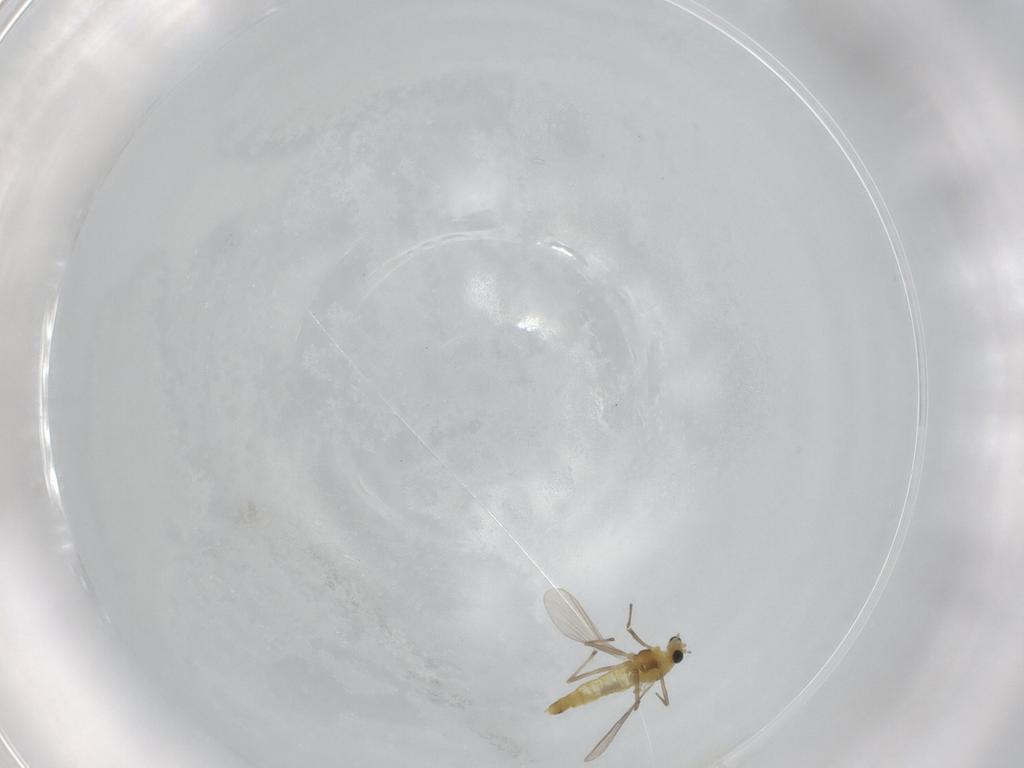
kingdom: Animalia
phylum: Arthropoda
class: Insecta
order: Diptera
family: Chironomidae
